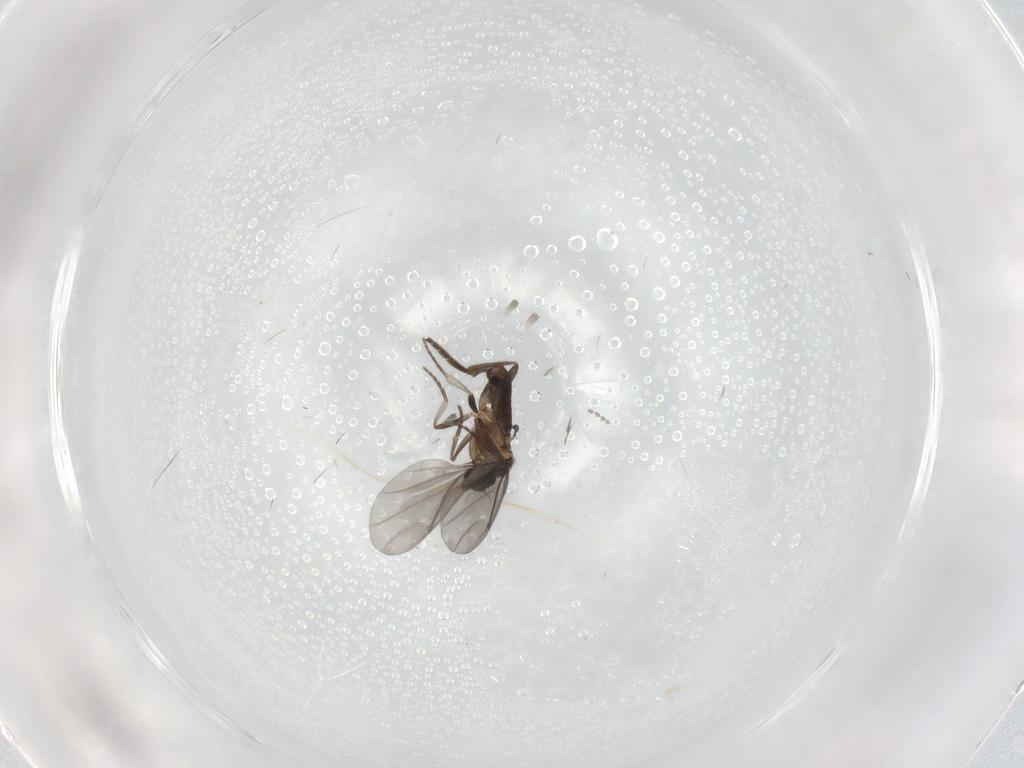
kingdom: Animalia
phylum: Arthropoda
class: Insecta
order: Diptera
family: Phoridae
